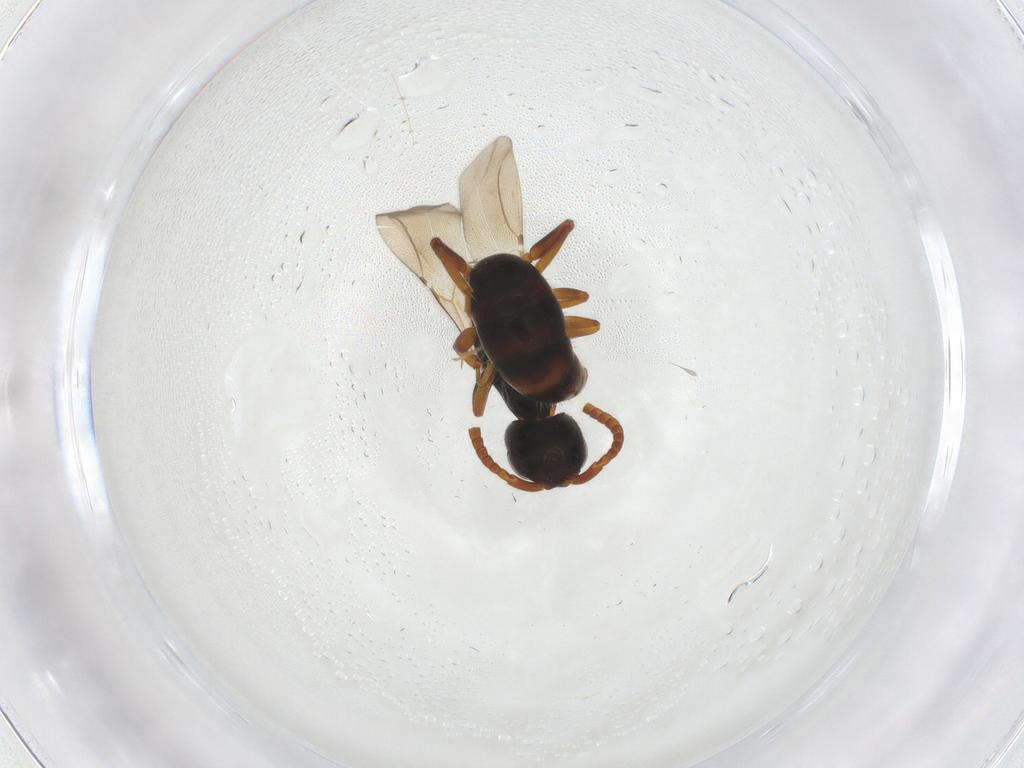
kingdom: Animalia
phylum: Arthropoda
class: Insecta
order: Hymenoptera
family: Bethylidae
